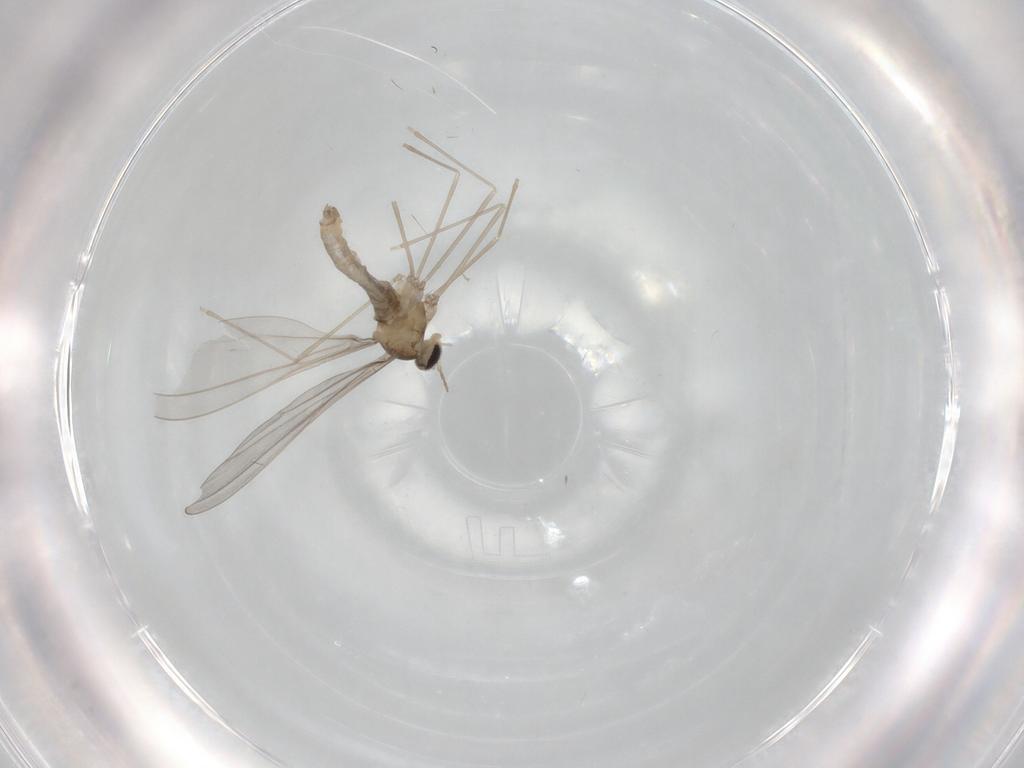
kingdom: Animalia
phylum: Arthropoda
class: Insecta
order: Diptera
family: Cecidomyiidae
